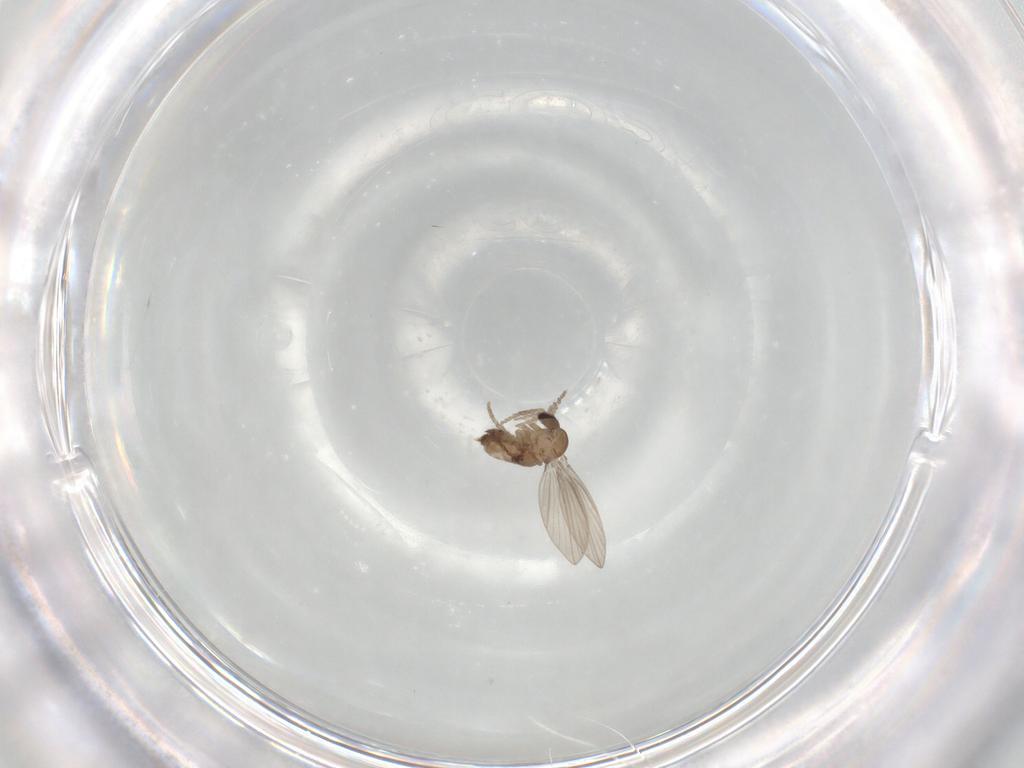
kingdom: Animalia
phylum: Arthropoda
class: Insecta
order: Diptera
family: Psychodidae
